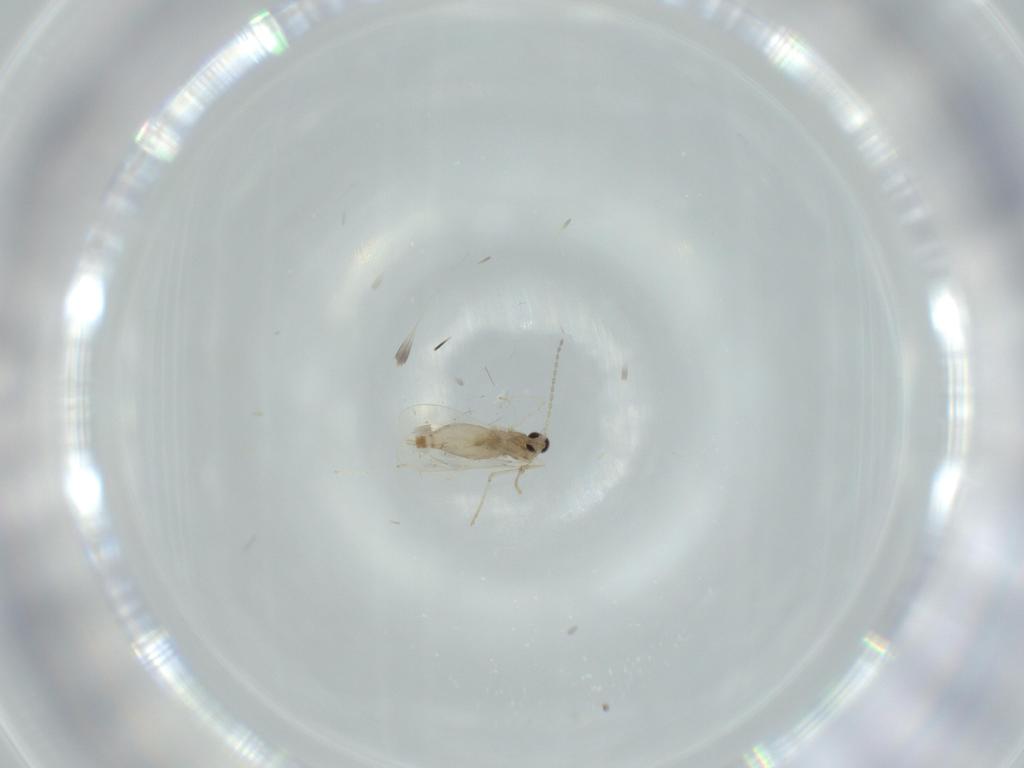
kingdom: Animalia
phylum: Arthropoda
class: Insecta
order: Diptera
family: Cecidomyiidae
